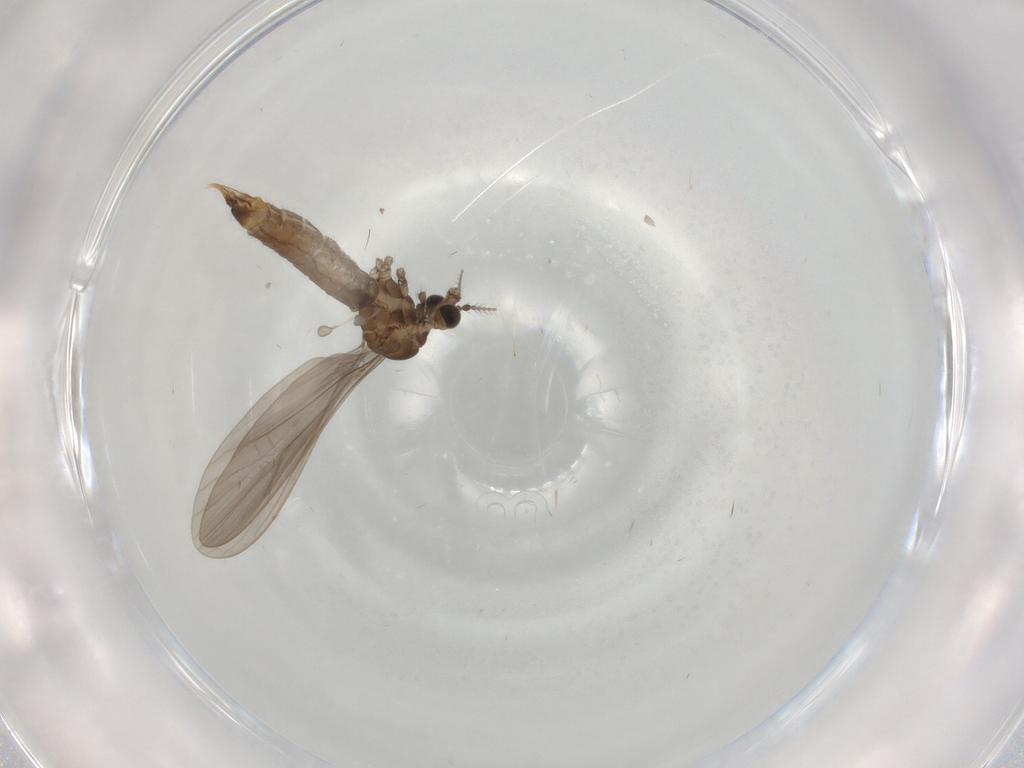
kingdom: Animalia
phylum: Arthropoda
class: Insecta
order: Diptera
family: Limoniidae
